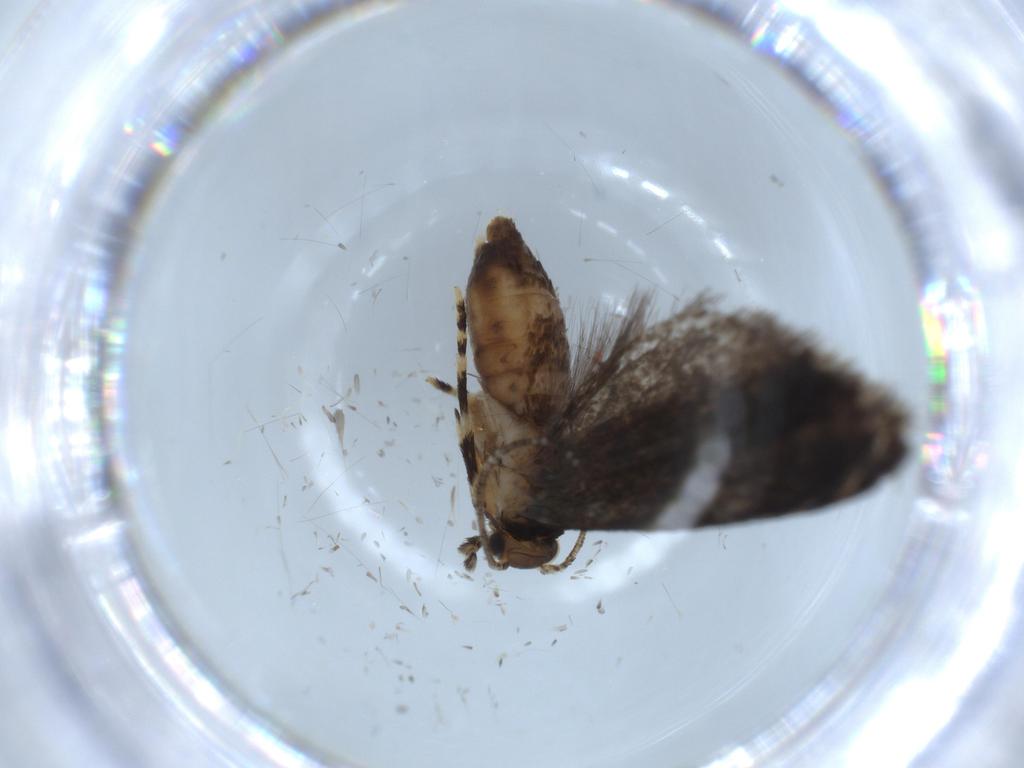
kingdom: Animalia
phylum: Arthropoda
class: Insecta
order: Lepidoptera
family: Tineidae
